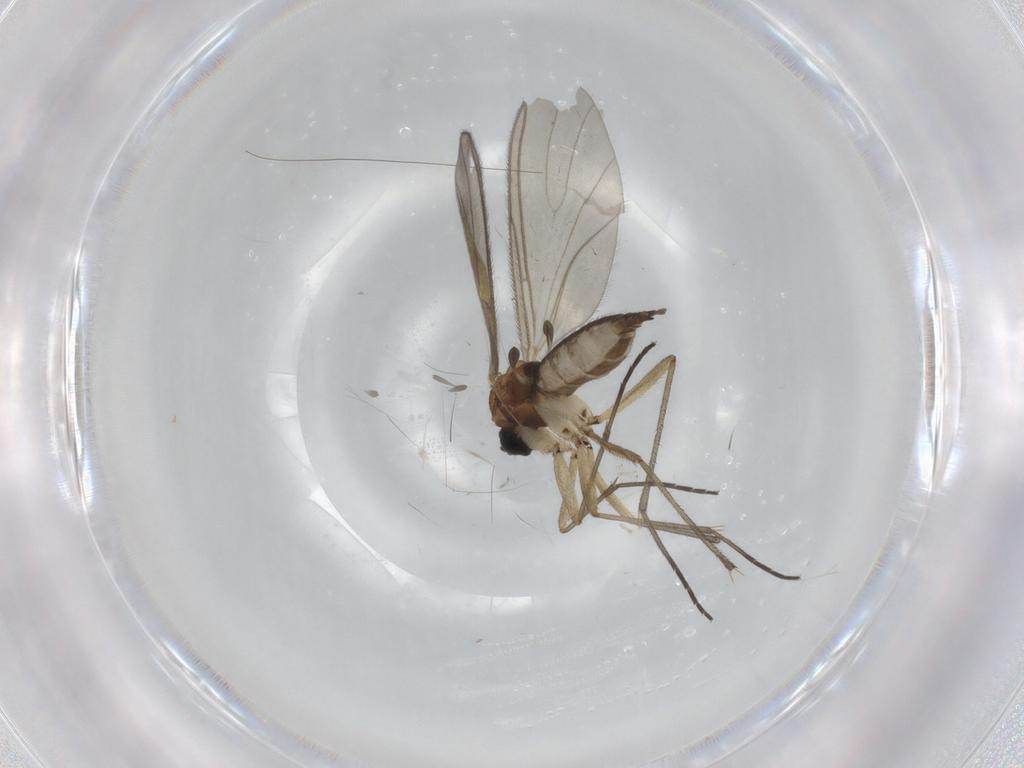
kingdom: Animalia
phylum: Arthropoda
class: Insecta
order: Diptera
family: Sciaridae
